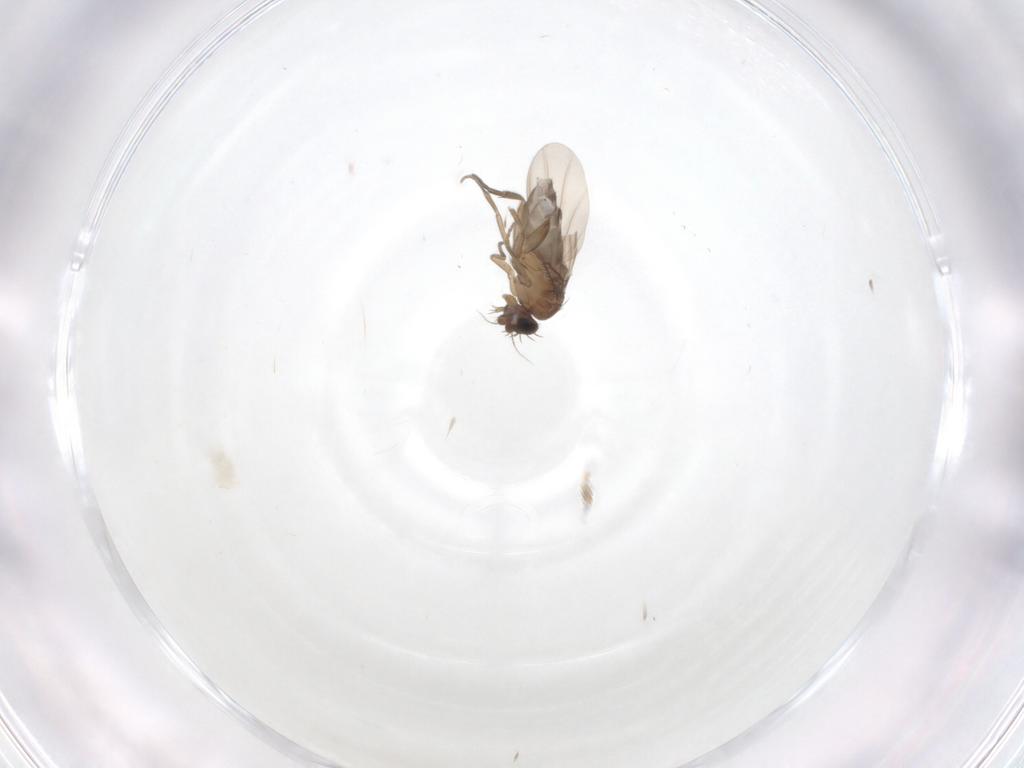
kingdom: Animalia
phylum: Arthropoda
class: Insecta
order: Diptera
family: Phoridae
